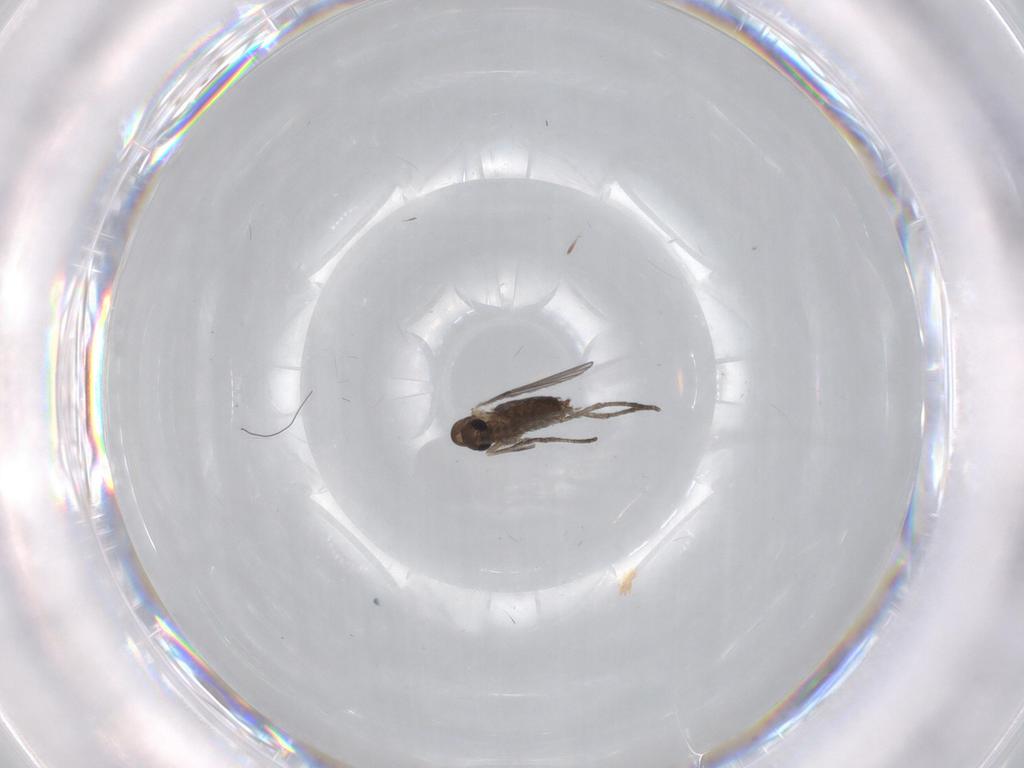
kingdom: Animalia
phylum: Arthropoda
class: Insecta
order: Diptera
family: Sciaridae
